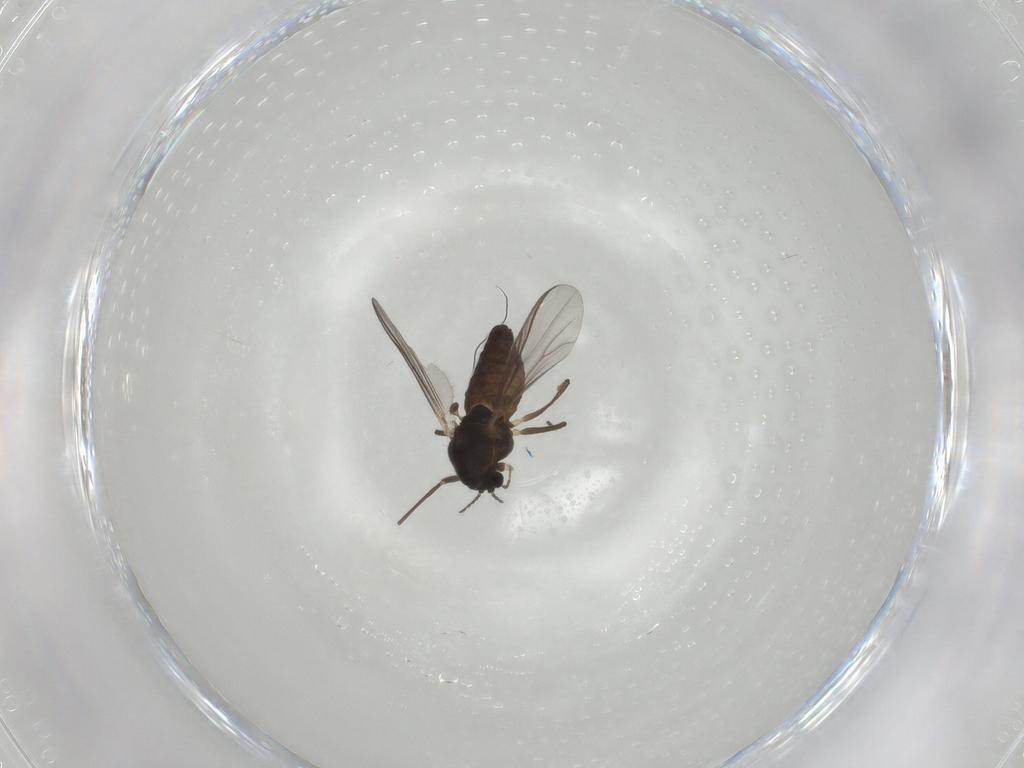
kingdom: Animalia
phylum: Arthropoda
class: Insecta
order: Diptera
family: Chironomidae
